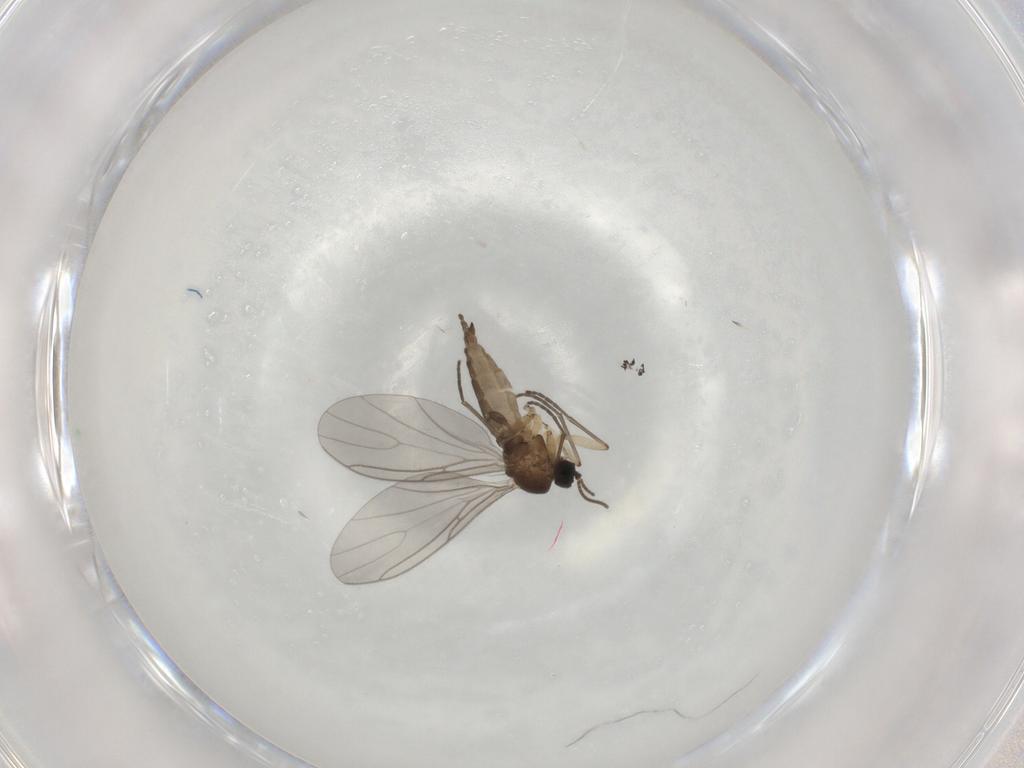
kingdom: Animalia
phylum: Arthropoda
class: Insecta
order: Diptera
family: Sciaridae
